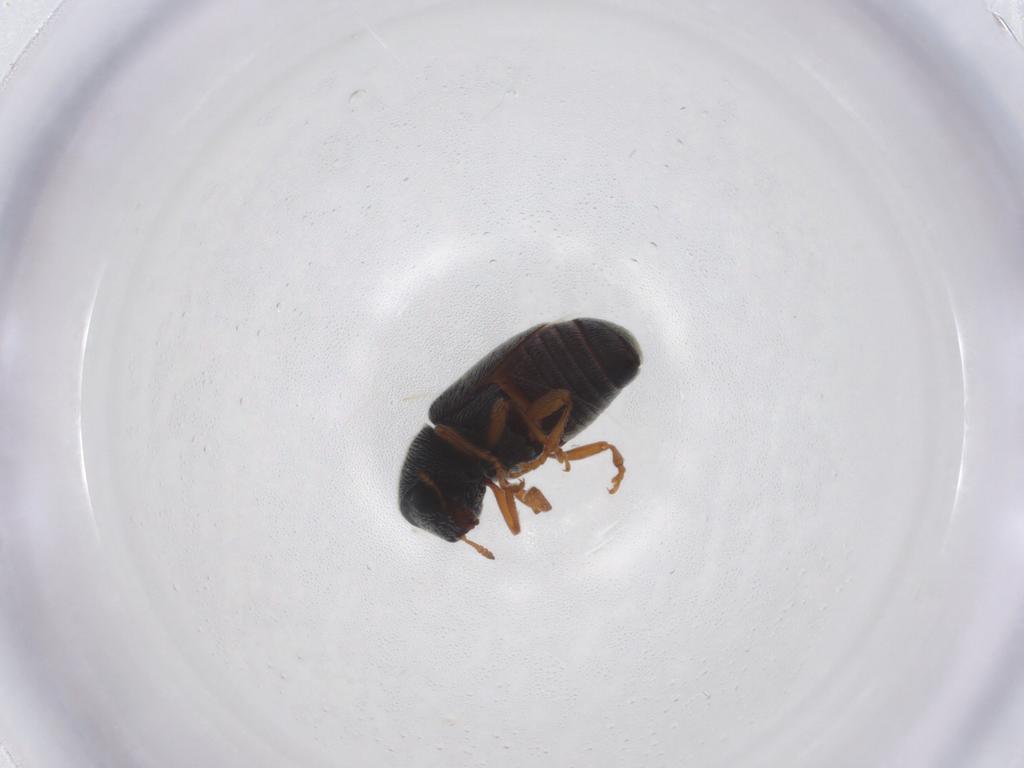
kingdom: Animalia
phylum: Arthropoda
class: Insecta
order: Coleoptera
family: Anthribidae
